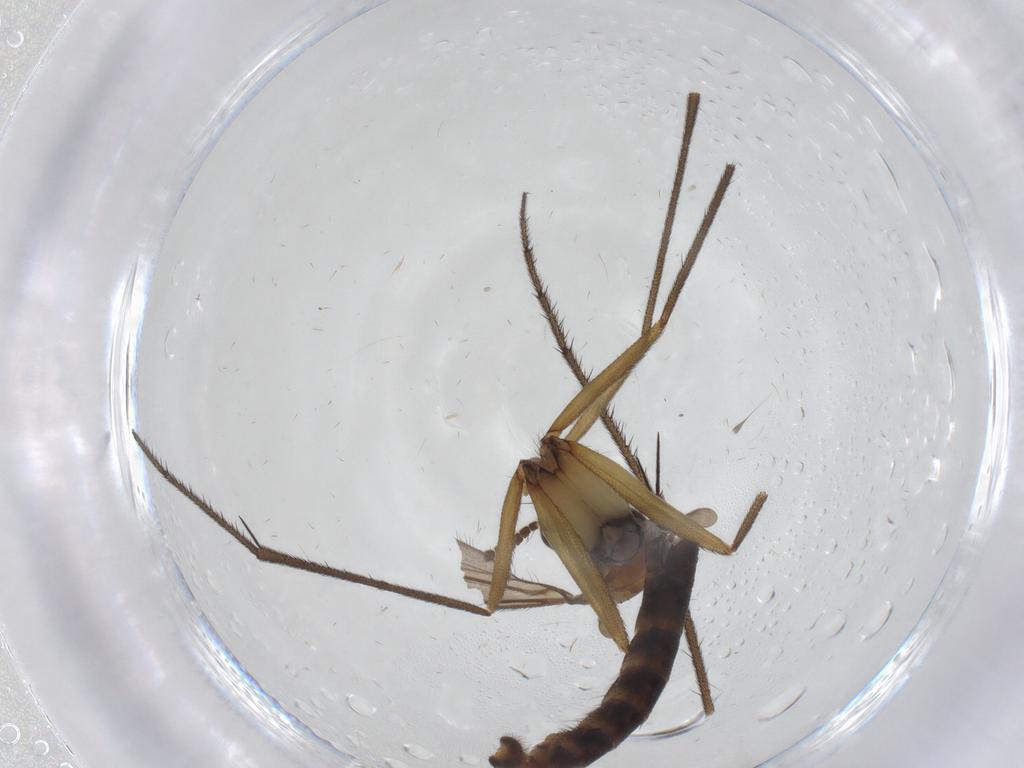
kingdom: Animalia
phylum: Arthropoda
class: Insecta
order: Diptera
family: Ditomyiidae
